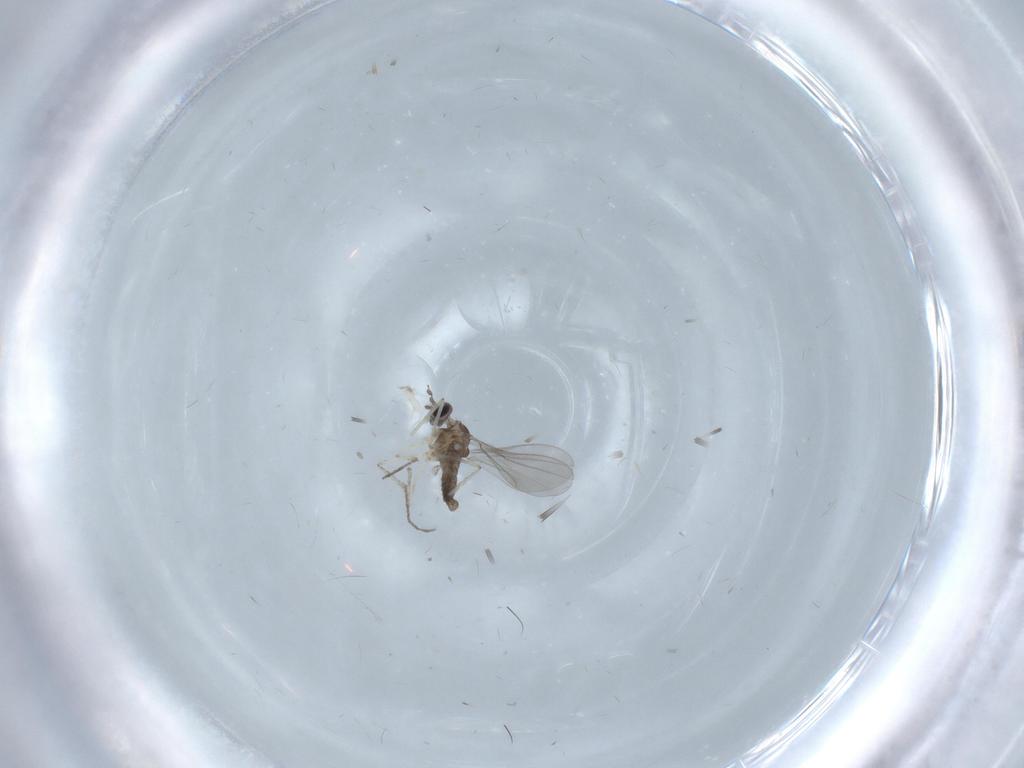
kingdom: Animalia
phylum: Arthropoda
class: Insecta
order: Diptera
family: Cecidomyiidae
